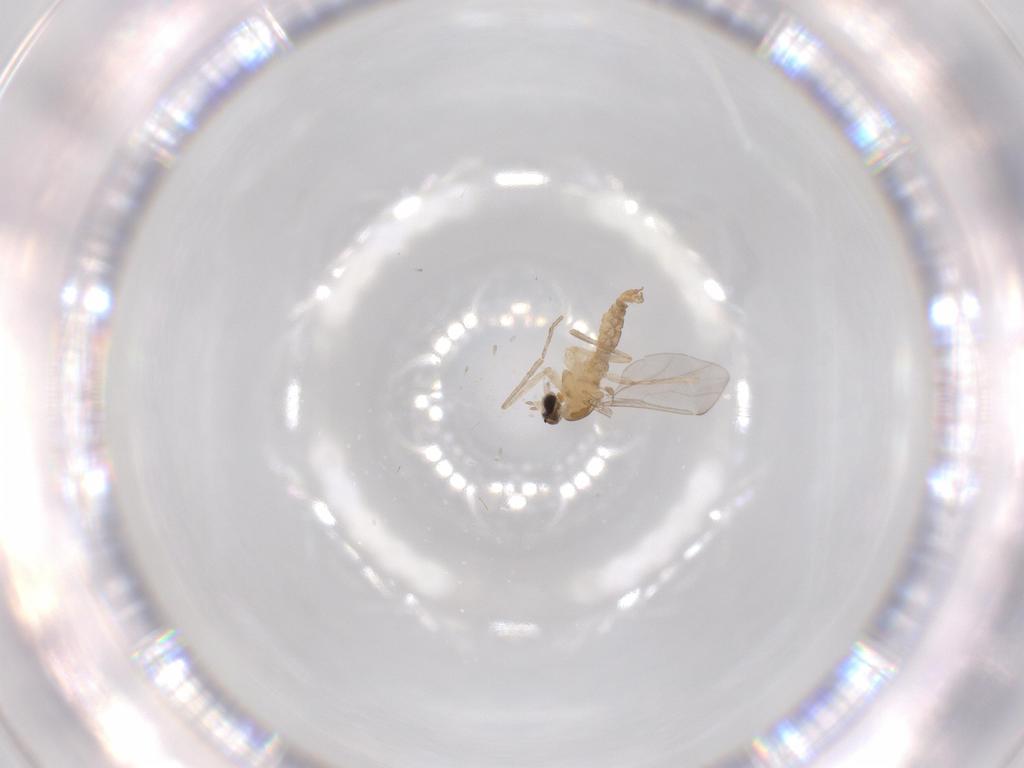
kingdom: Animalia
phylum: Arthropoda
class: Insecta
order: Diptera
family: Cecidomyiidae
